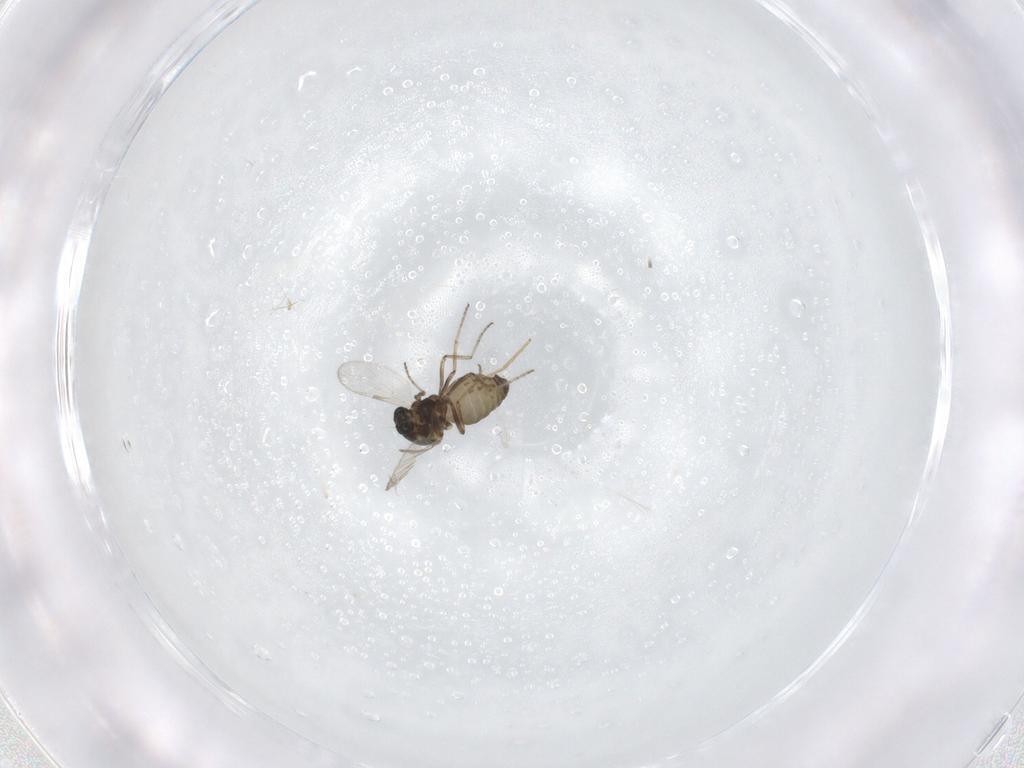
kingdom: Animalia
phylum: Arthropoda
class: Insecta
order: Diptera
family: Ceratopogonidae
